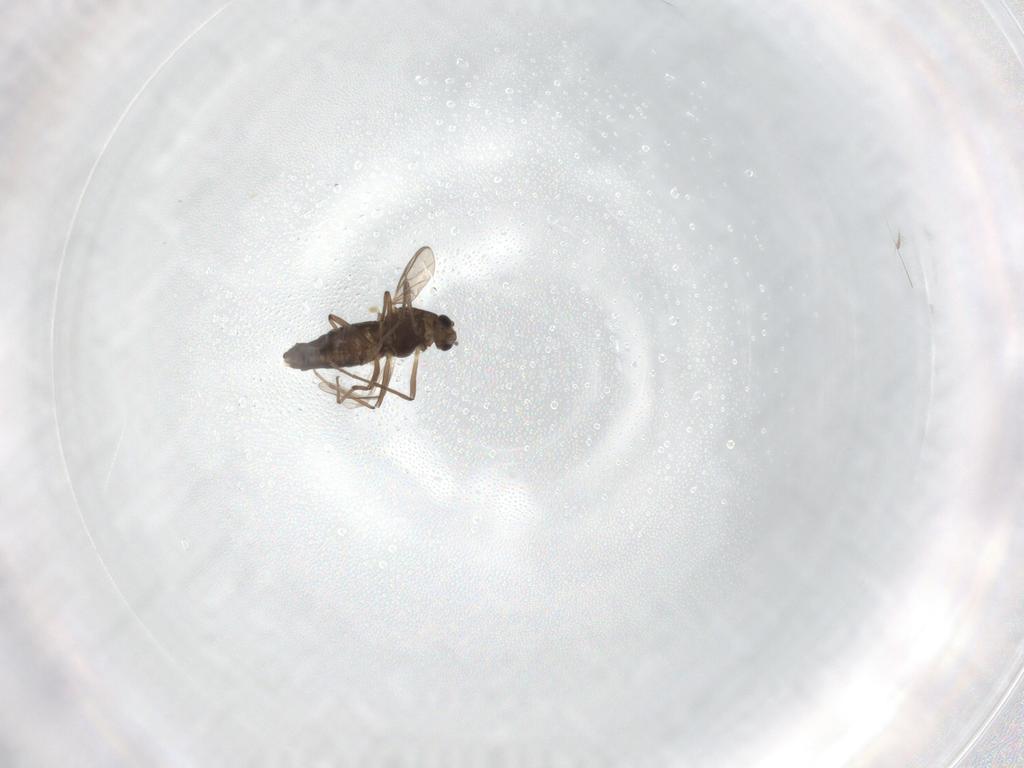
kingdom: Animalia
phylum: Arthropoda
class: Insecta
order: Diptera
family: Chironomidae
